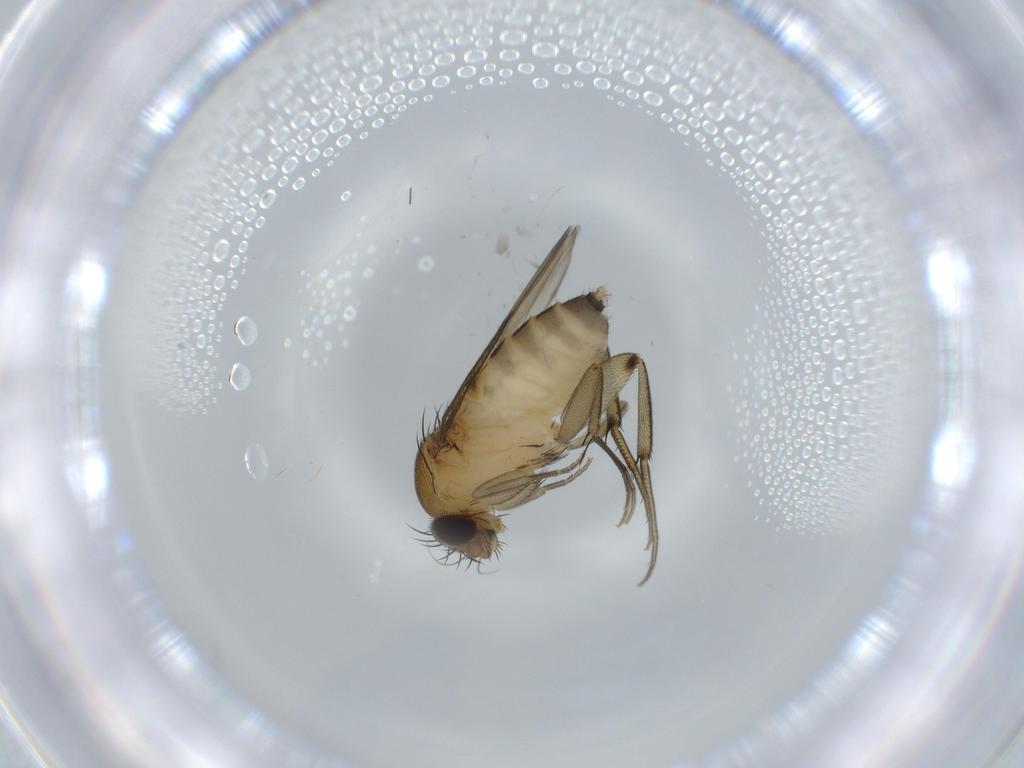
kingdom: Animalia
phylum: Arthropoda
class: Insecta
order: Diptera
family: Phoridae
